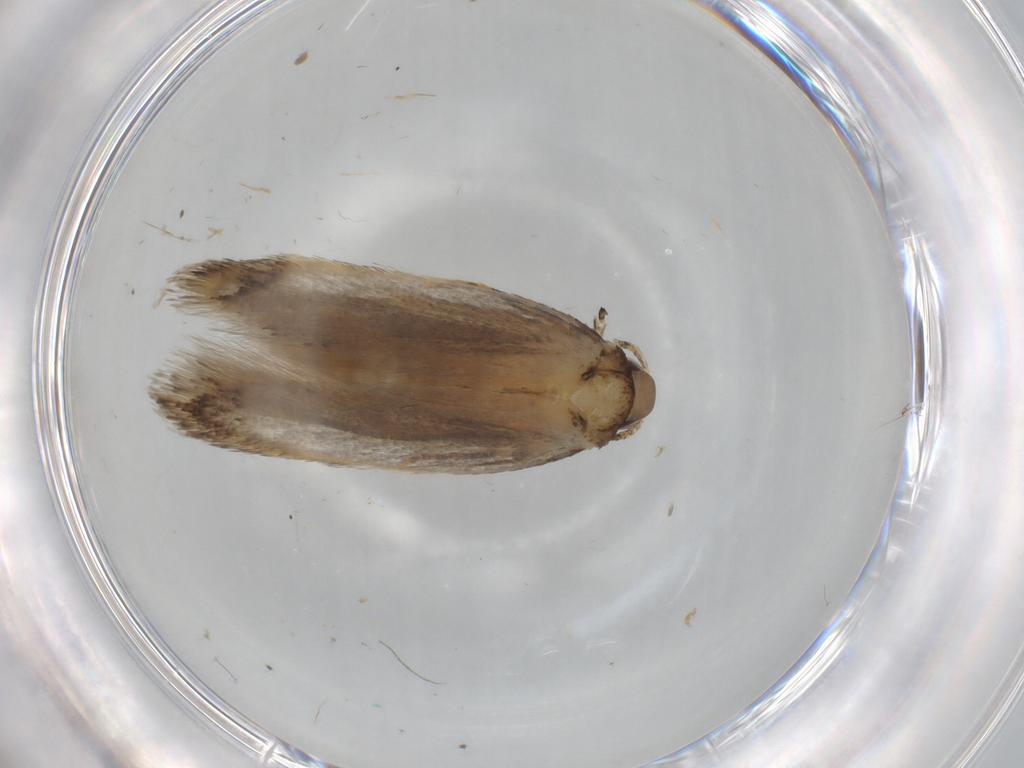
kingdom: Animalia
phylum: Arthropoda
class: Insecta
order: Lepidoptera
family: Autostichidae
